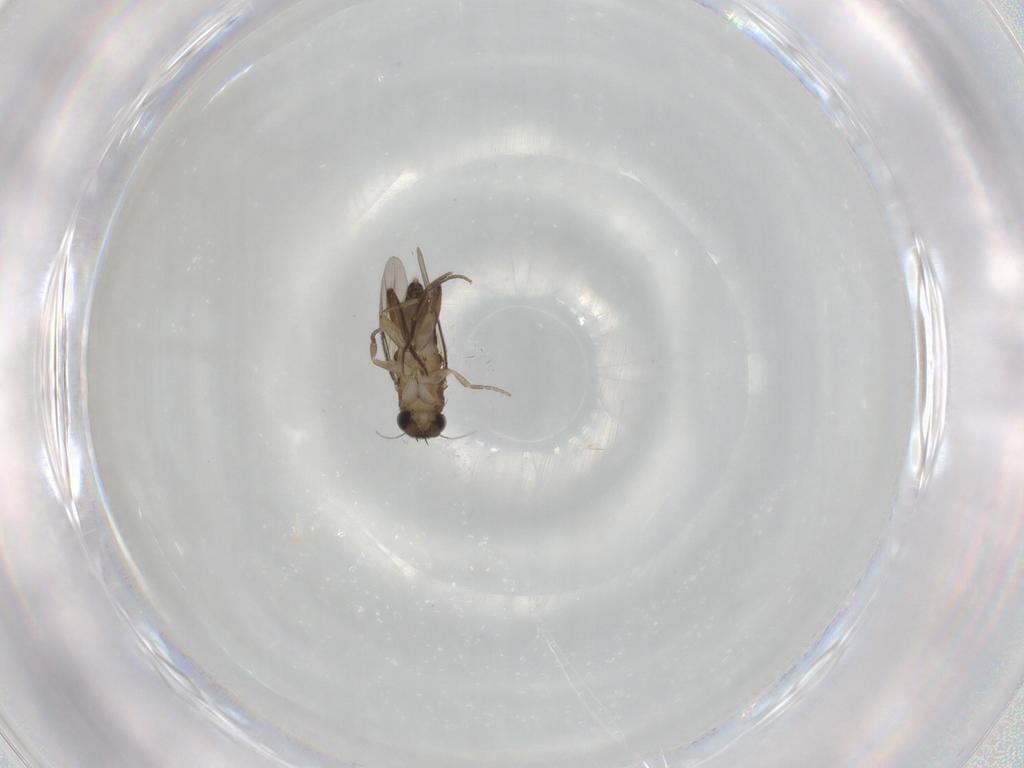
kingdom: Animalia
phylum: Arthropoda
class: Insecta
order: Diptera
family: Phoridae
